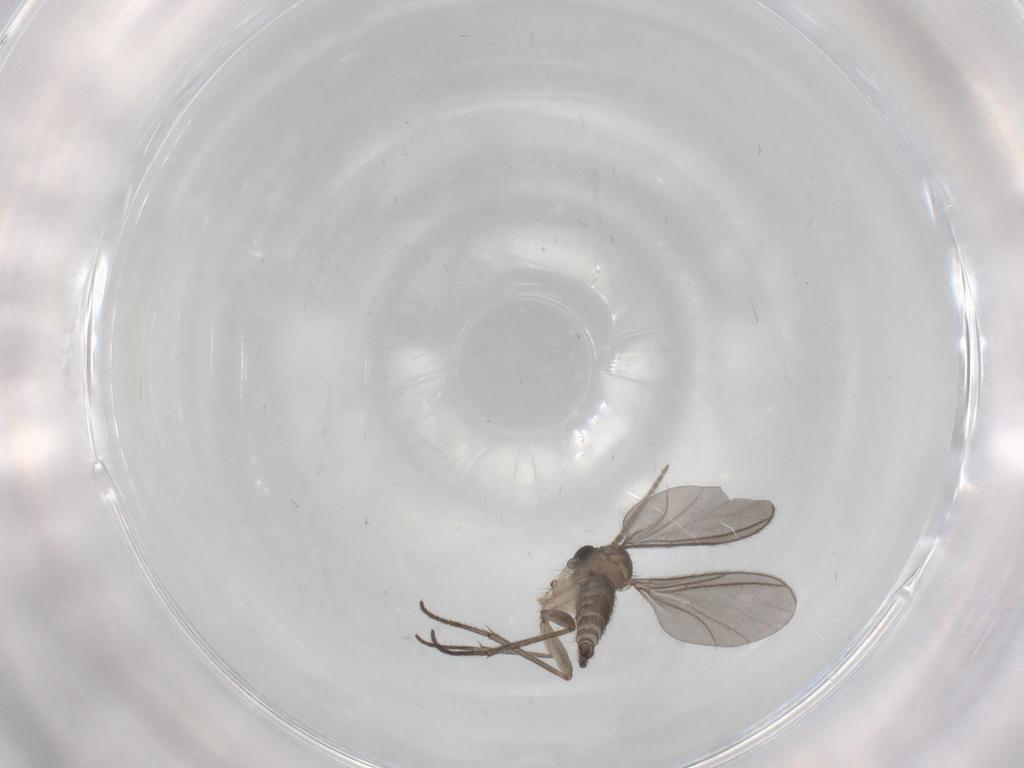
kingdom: Animalia
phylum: Arthropoda
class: Insecta
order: Diptera
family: Sciaridae
